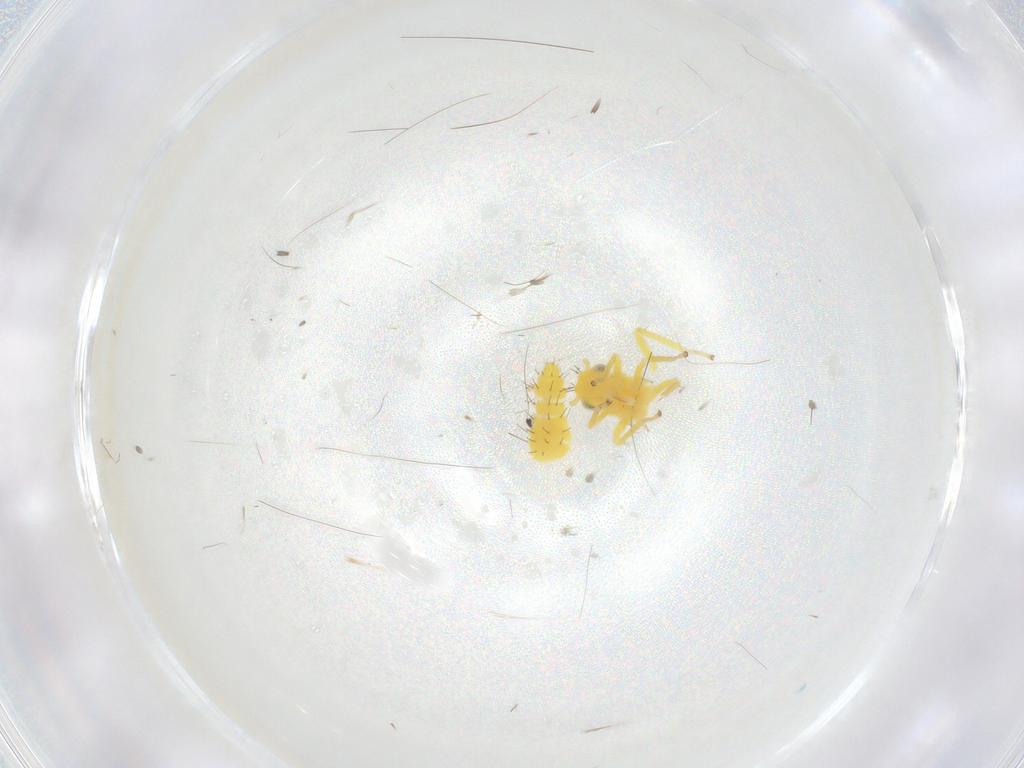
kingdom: Animalia
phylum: Arthropoda
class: Insecta
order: Hemiptera
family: Cicadellidae
